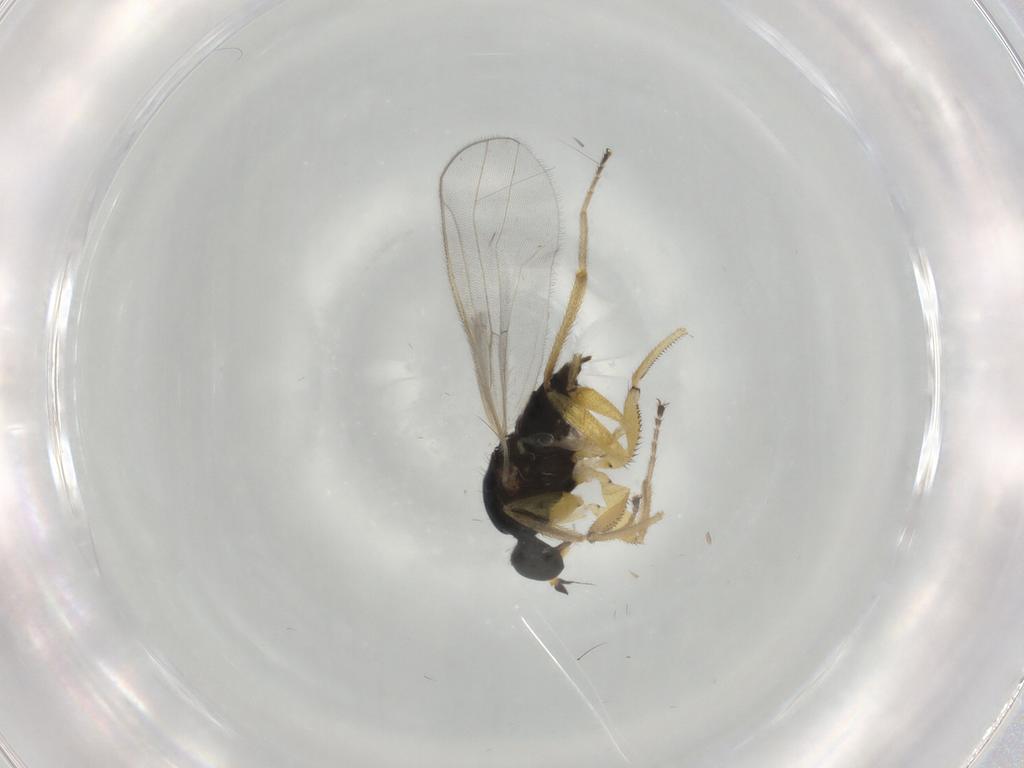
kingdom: Animalia
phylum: Arthropoda
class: Insecta
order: Diptera
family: Hybotidae
